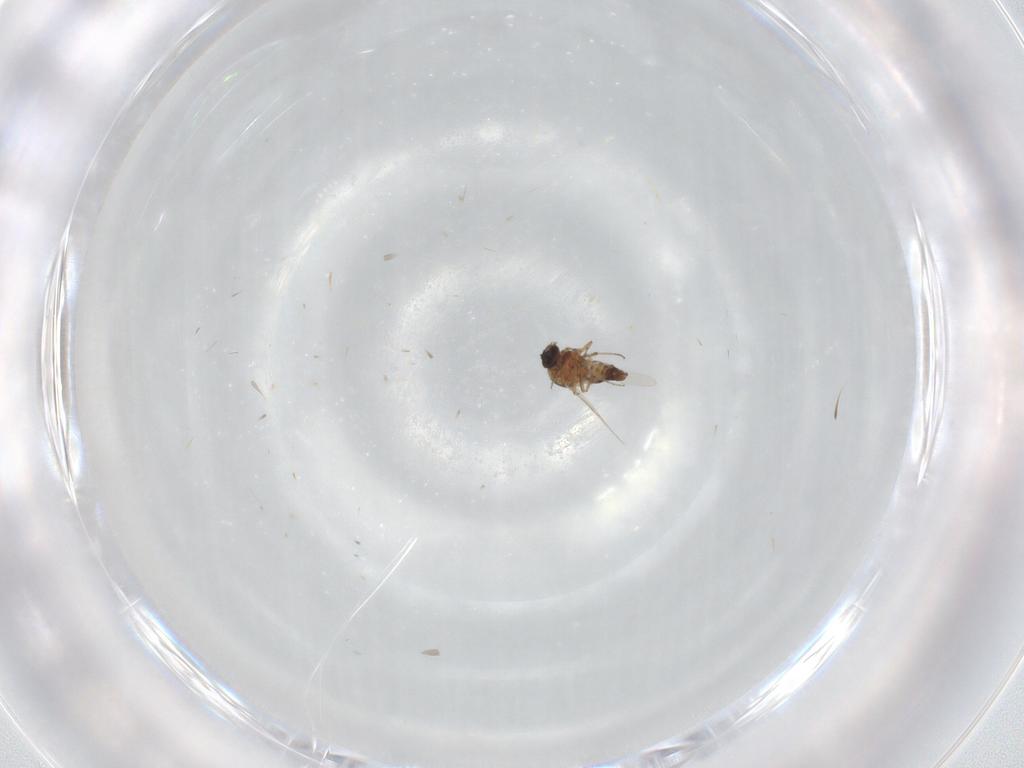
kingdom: Animalia
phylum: Arthropoda
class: Insecta
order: Diptera
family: Ceratopogonidae
